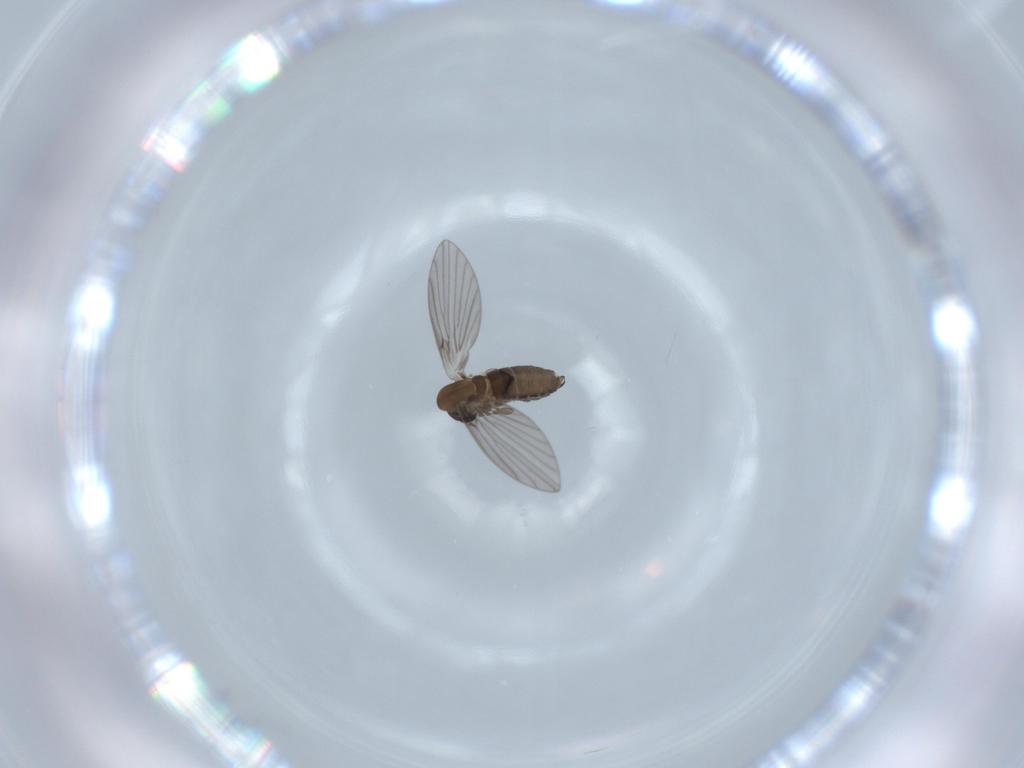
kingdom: Animalia
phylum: Arthropoda
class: Insecta
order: Diptera
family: Psychodidae
